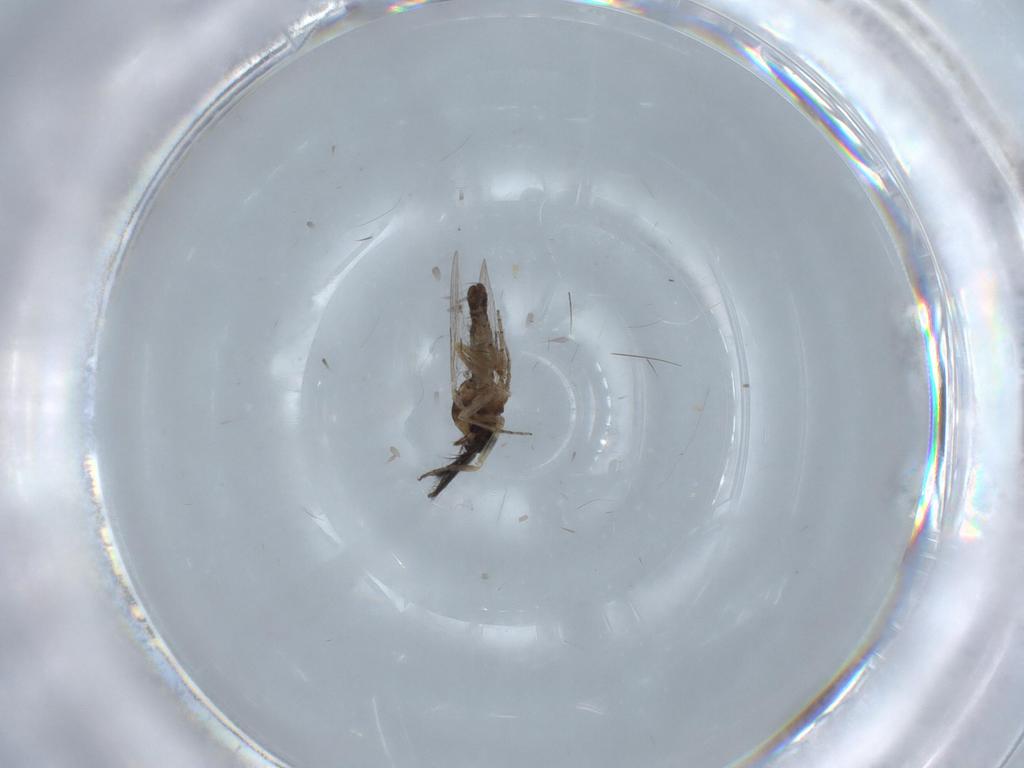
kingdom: Animalia
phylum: Arthropoda
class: Insecta
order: Diptera
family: Ceratopogonidae
